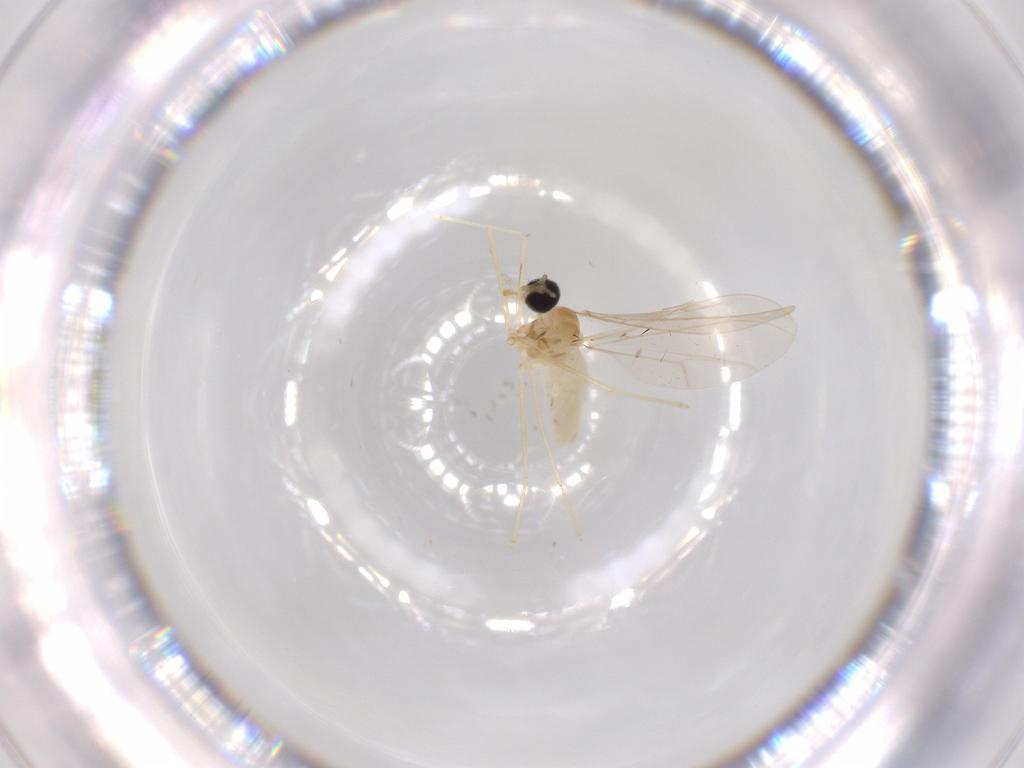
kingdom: Animalia
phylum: Arthropoda
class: Insecta
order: Diptera
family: Cecidomyiidae
